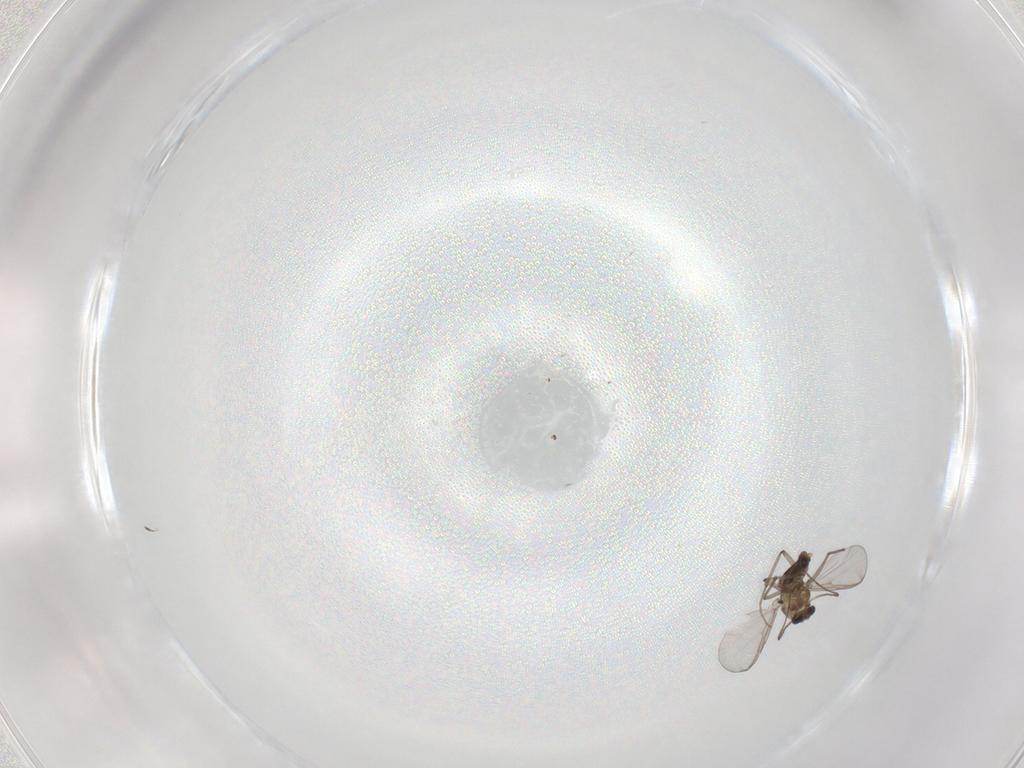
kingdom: Animalia
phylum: Arthropoda
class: Insecta
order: Diptera
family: Chironomidae
